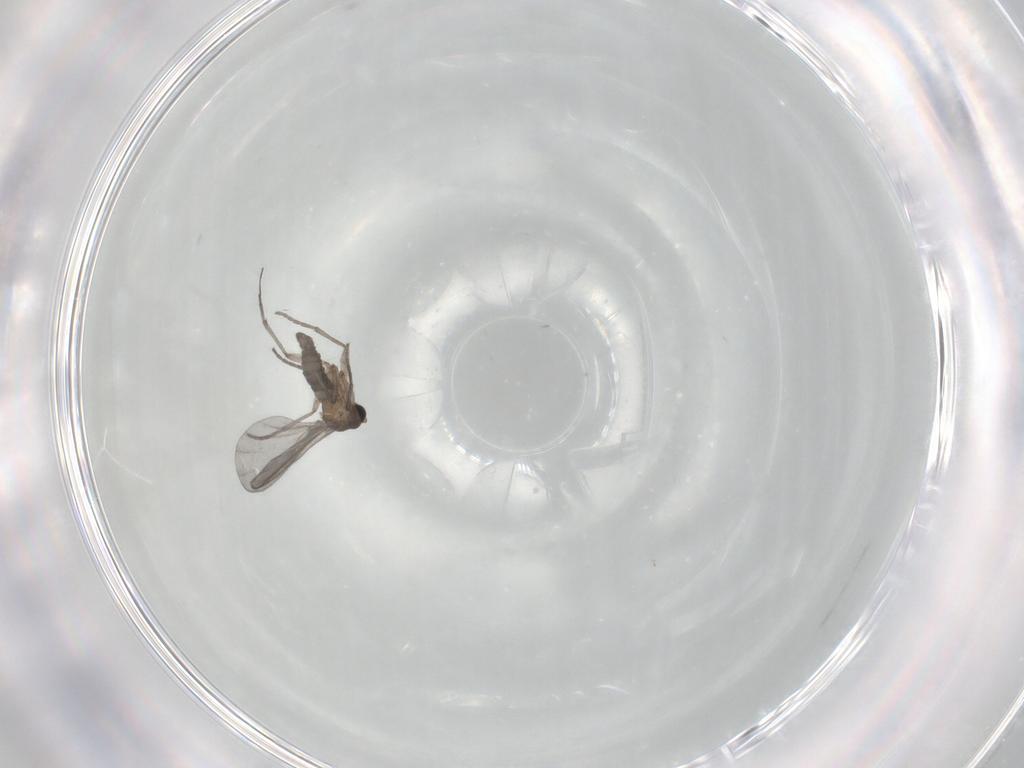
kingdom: Animalia
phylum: Arthropoda
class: Insecta
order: Diptera
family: Sciaridae
